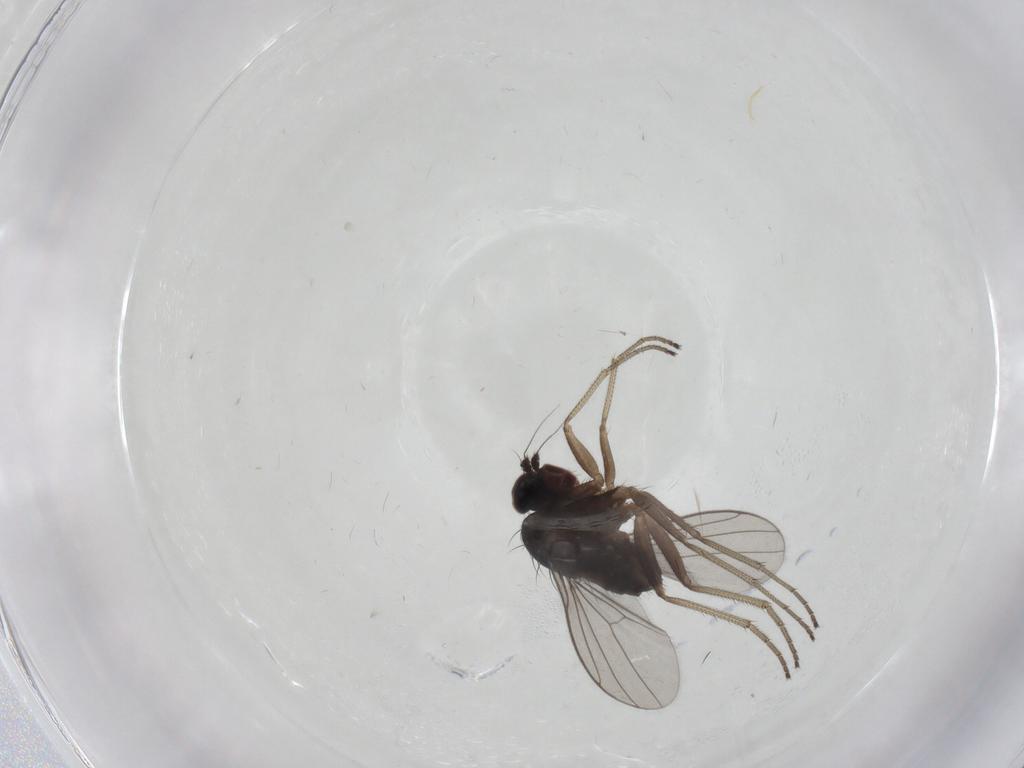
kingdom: Animalia
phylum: Arthropoda
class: Insecta
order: Diptera
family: Dolichopodidae
